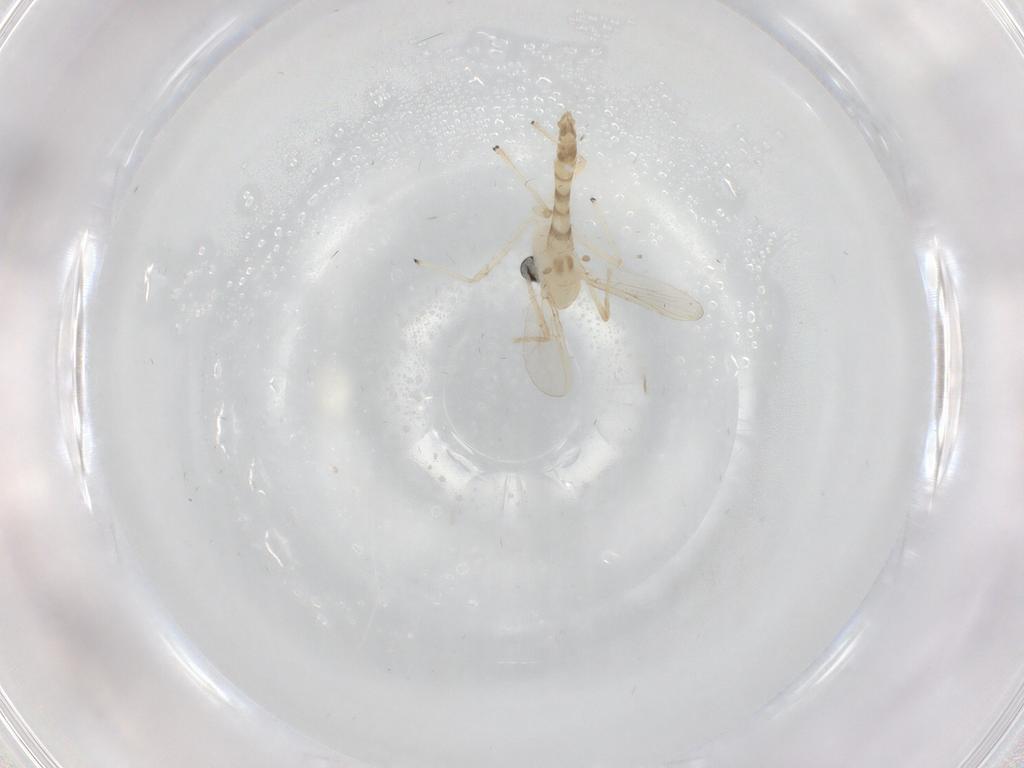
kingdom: Animalia
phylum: Arthropoda
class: Insecta
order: Diptera
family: Chironomidae
